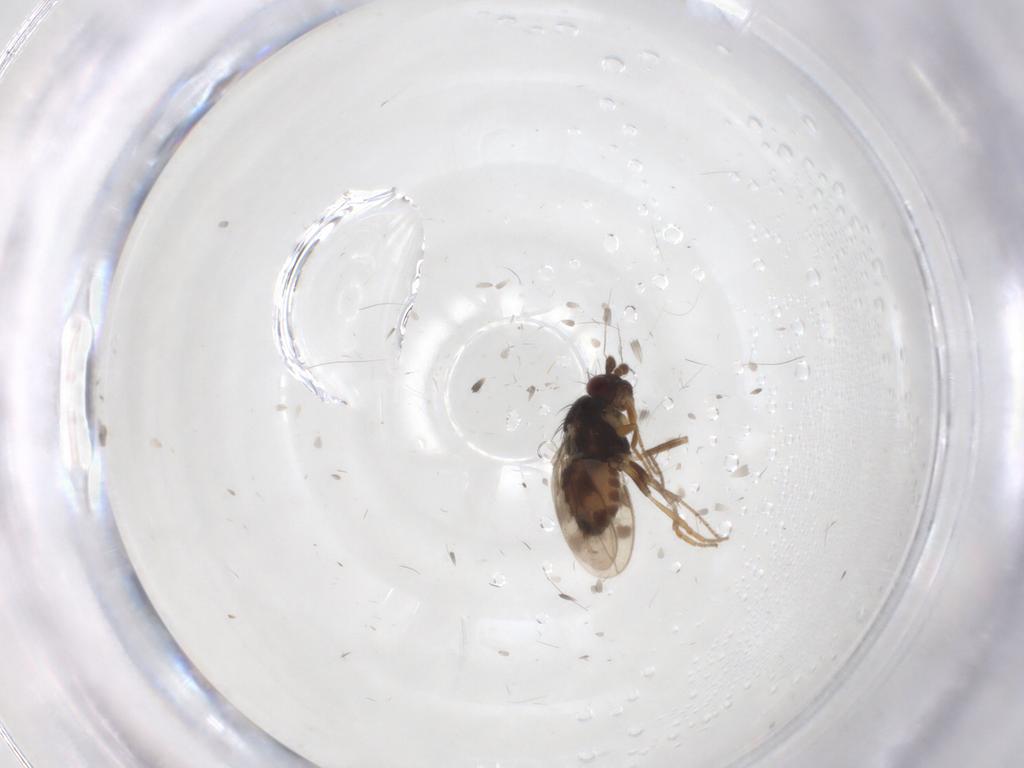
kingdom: Animalia
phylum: Arthropoda
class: Insecta
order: Diptera
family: Sphaeroceridae
